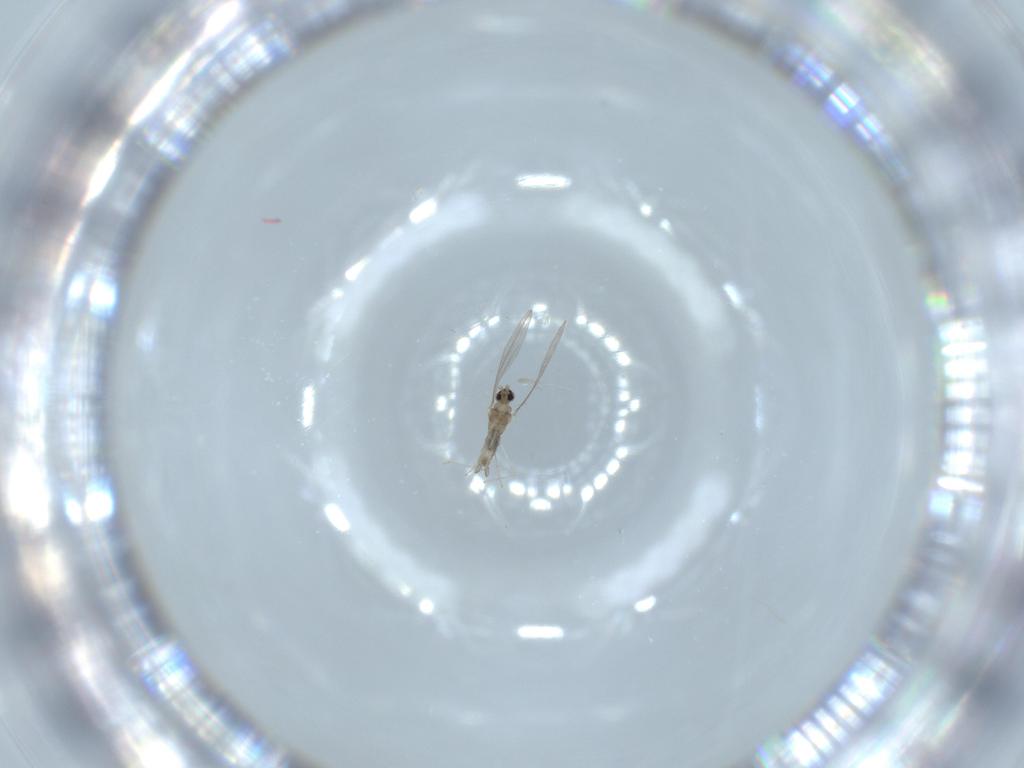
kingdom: Animalia
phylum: Arthropoda
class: Insecta
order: Diptera
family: Cecidomyiidae
